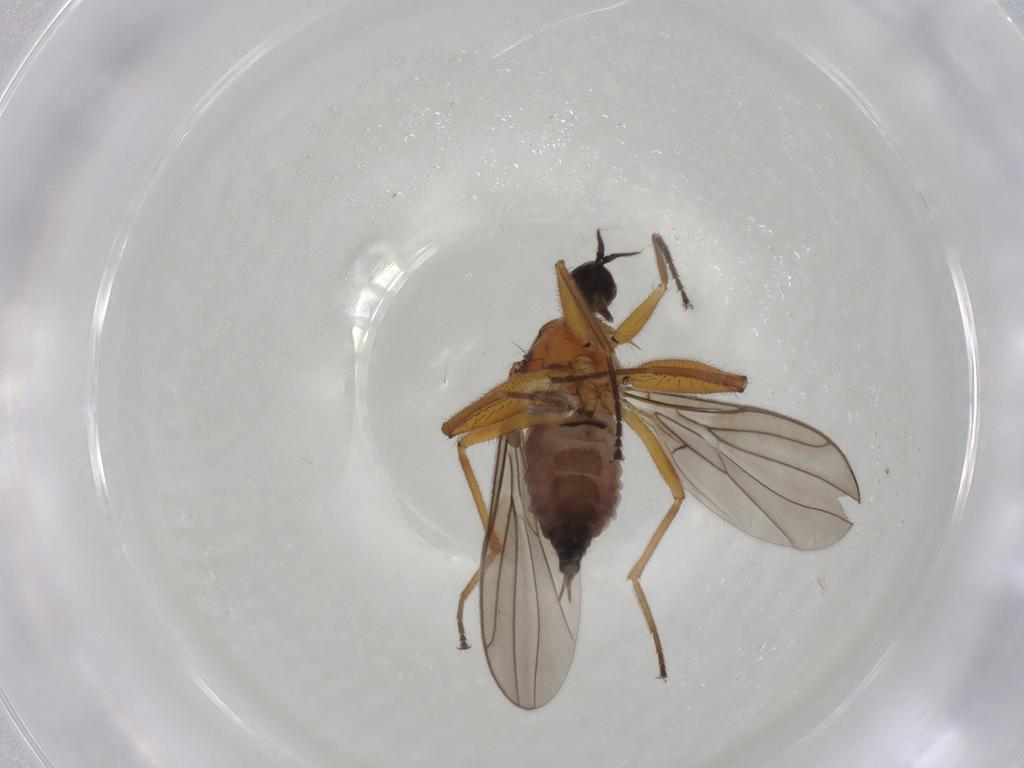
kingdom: Animalia
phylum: Arthropoda
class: Insecta
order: Diptera
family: Hybotidae
